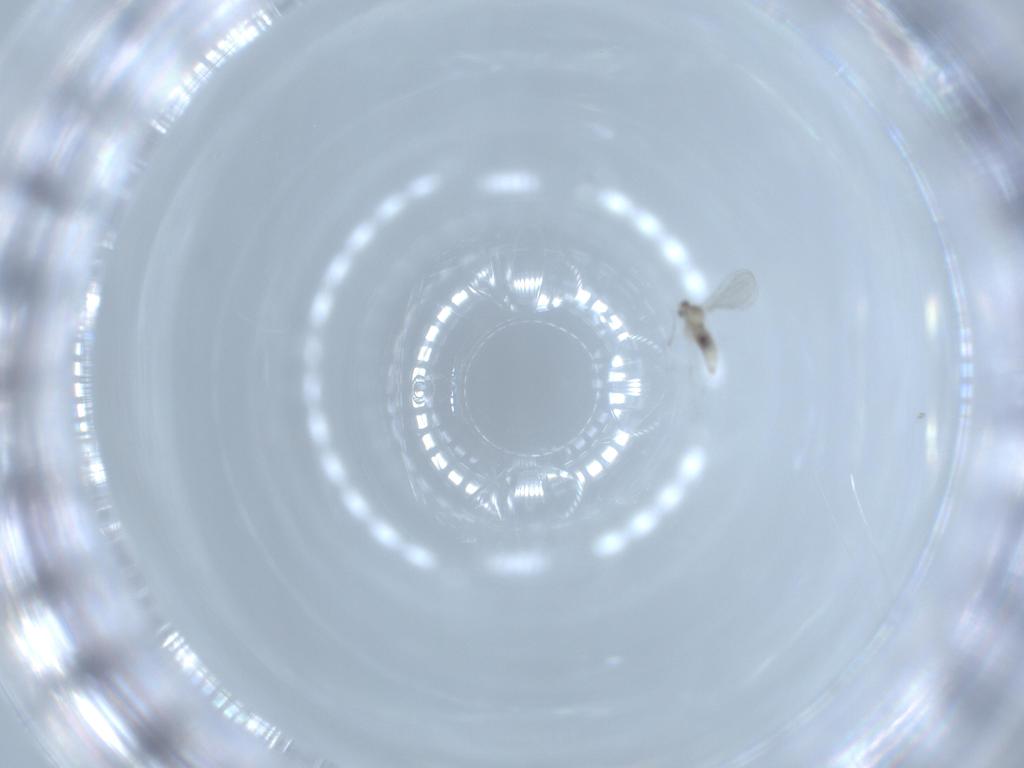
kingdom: Animalia
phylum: Arthropoda
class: Insecta
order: Diptera
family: Cecidomyiidae
